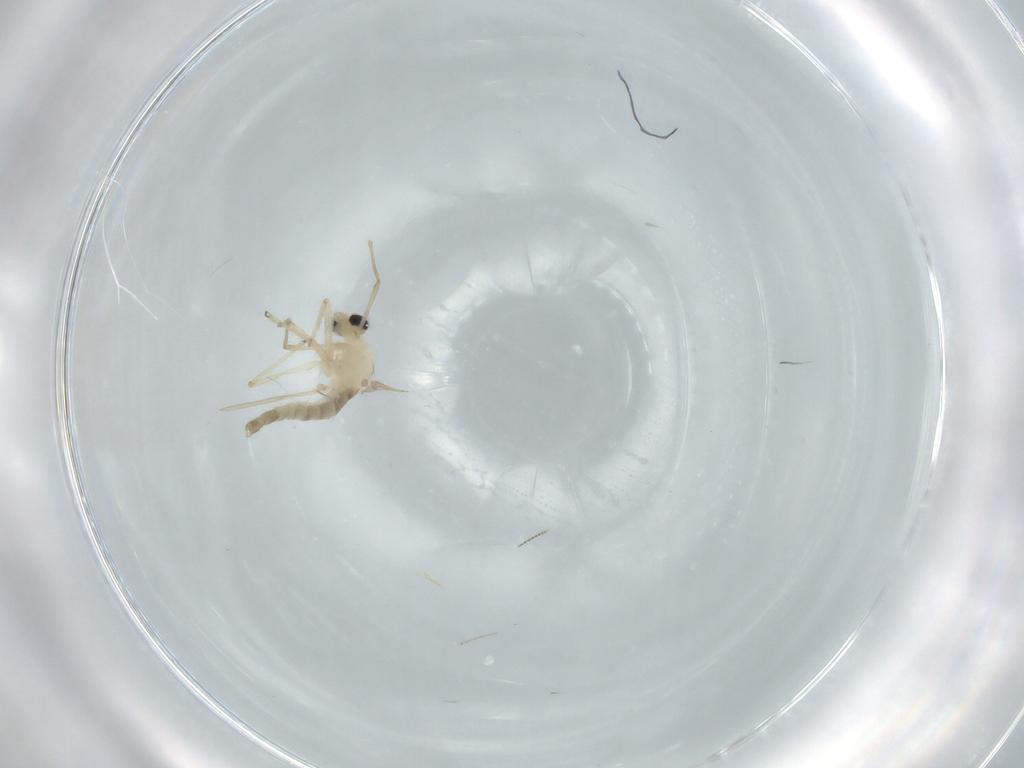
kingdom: Animalia
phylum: Arthropoda
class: Insecta
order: Diptera
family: Chironomidae
